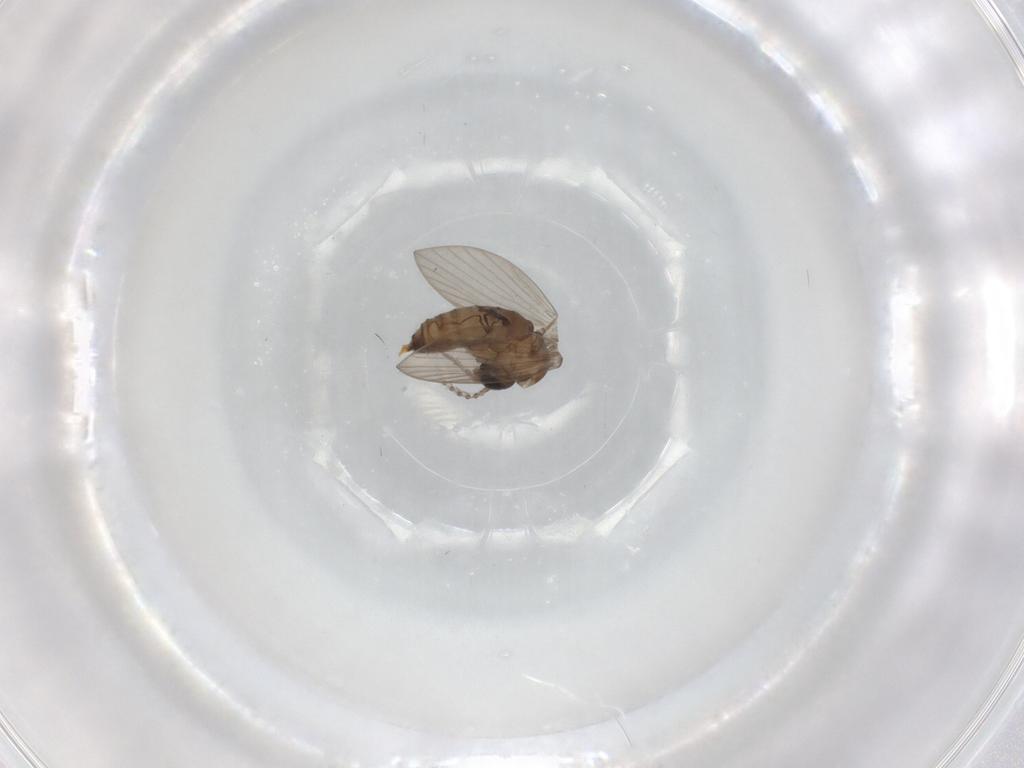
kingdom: Animalia
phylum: Arthropoda
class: Insecta
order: Diptera
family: Psychodidae
